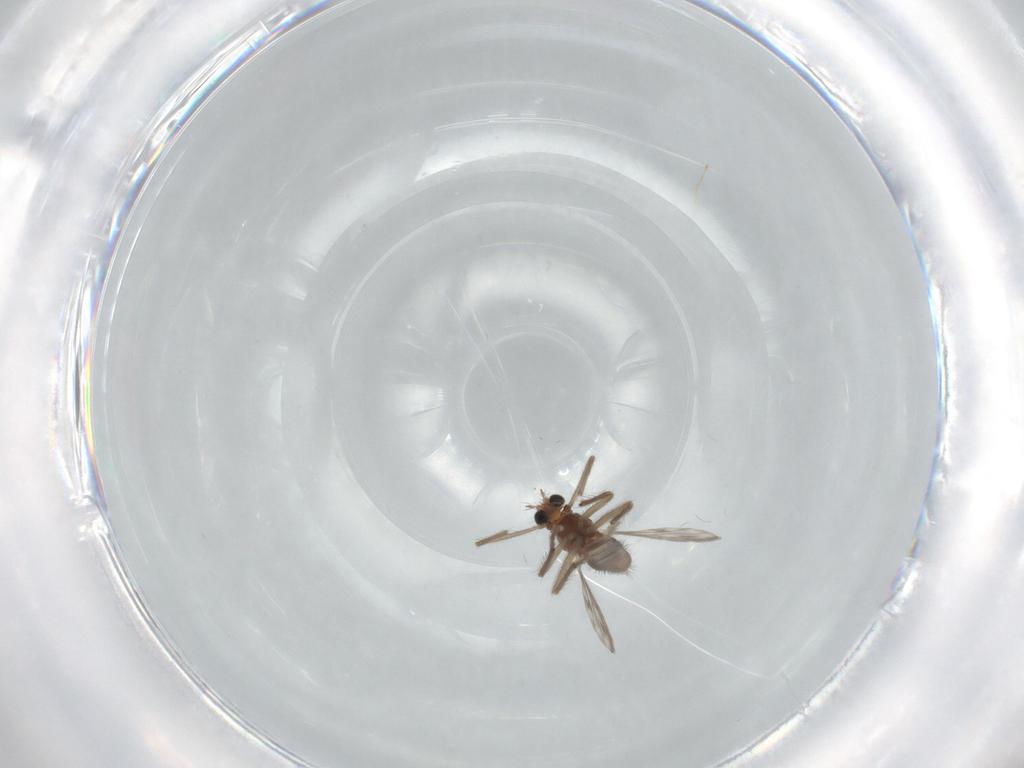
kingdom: Animalia
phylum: Arthropoda
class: Insecta
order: Diptera
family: Chironomidae
